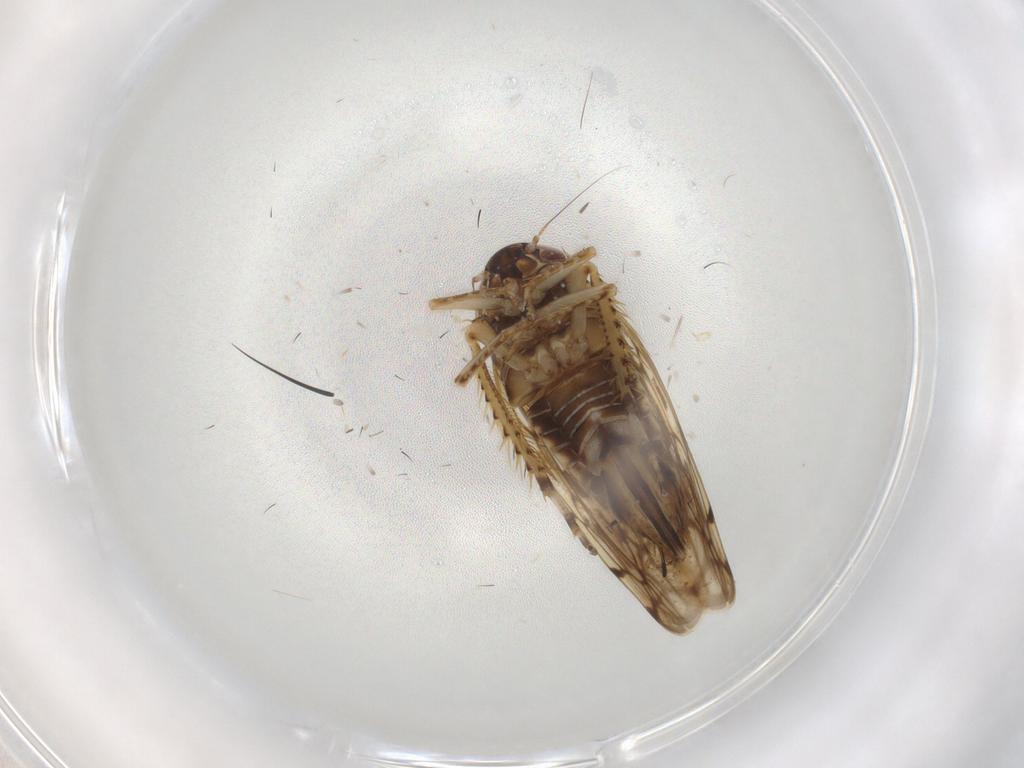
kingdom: Animalia
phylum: Arthropoda
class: Insecta
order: Hemiptera
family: Cicadellidae
